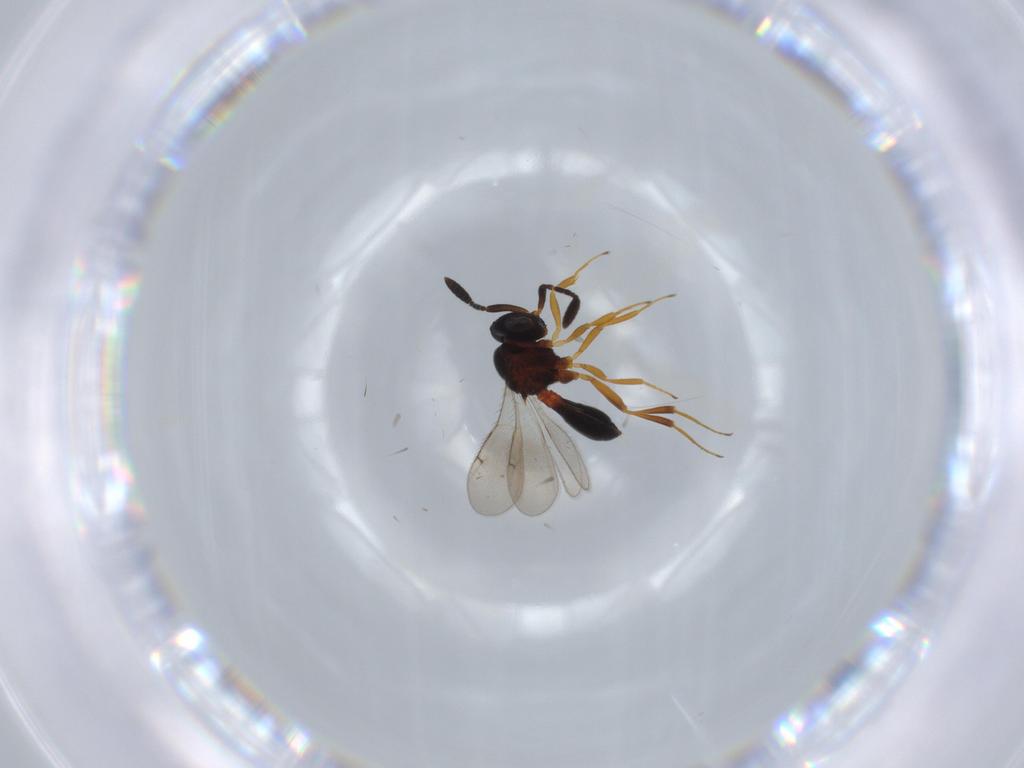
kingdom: Animalia
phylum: Arthropoda
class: Insecta
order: Hymenoptera
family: Scelionidae
